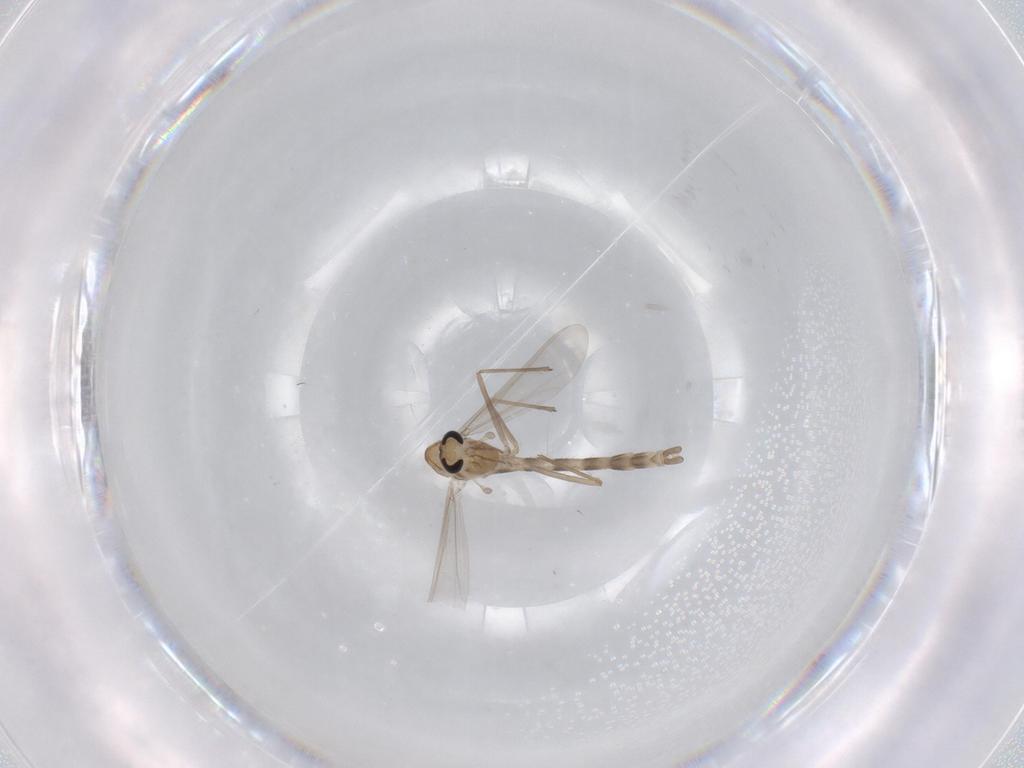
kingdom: Animalia
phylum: Arthropoda
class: Insecta
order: Diptera
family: Chironomidae
